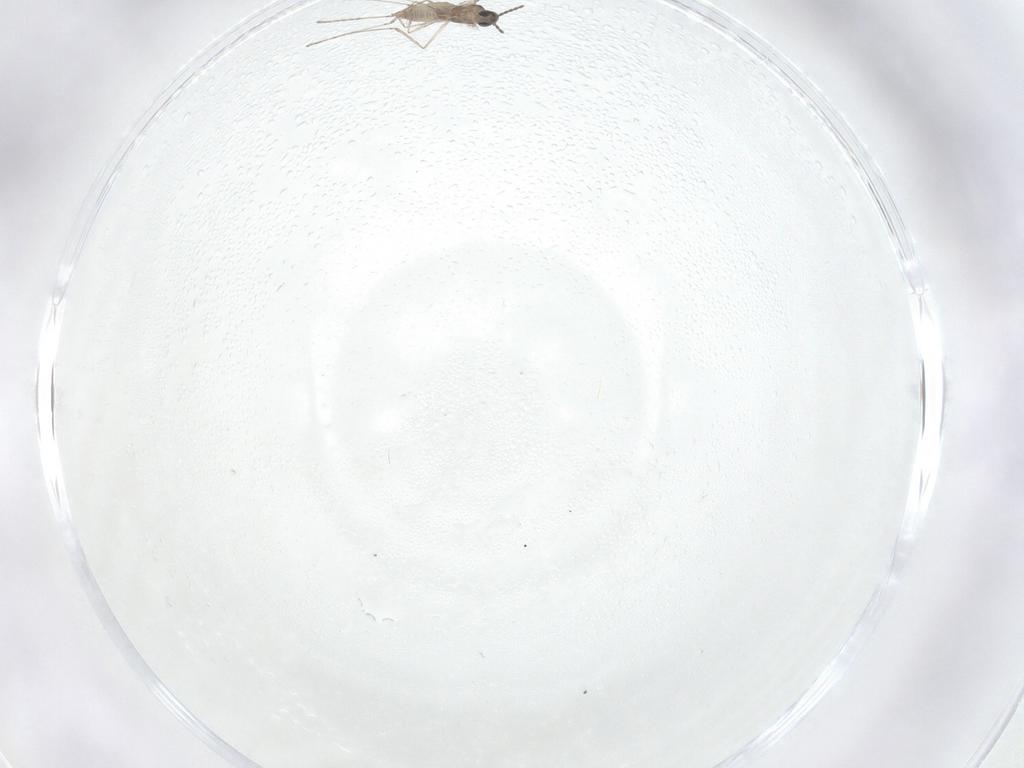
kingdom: Animalia
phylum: Arthropoda
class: Insecta
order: Diptera
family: Cecidomyiidae
